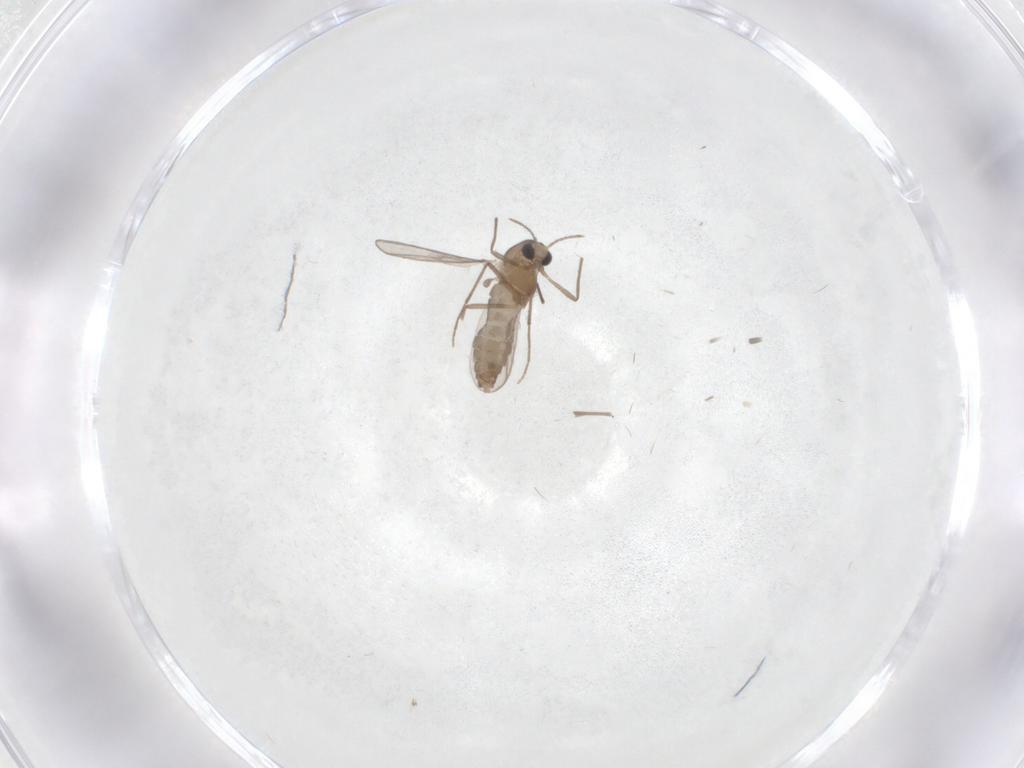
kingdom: Animalia
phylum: Arthropoda
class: Insecta
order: Diptera
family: Chironomidae
